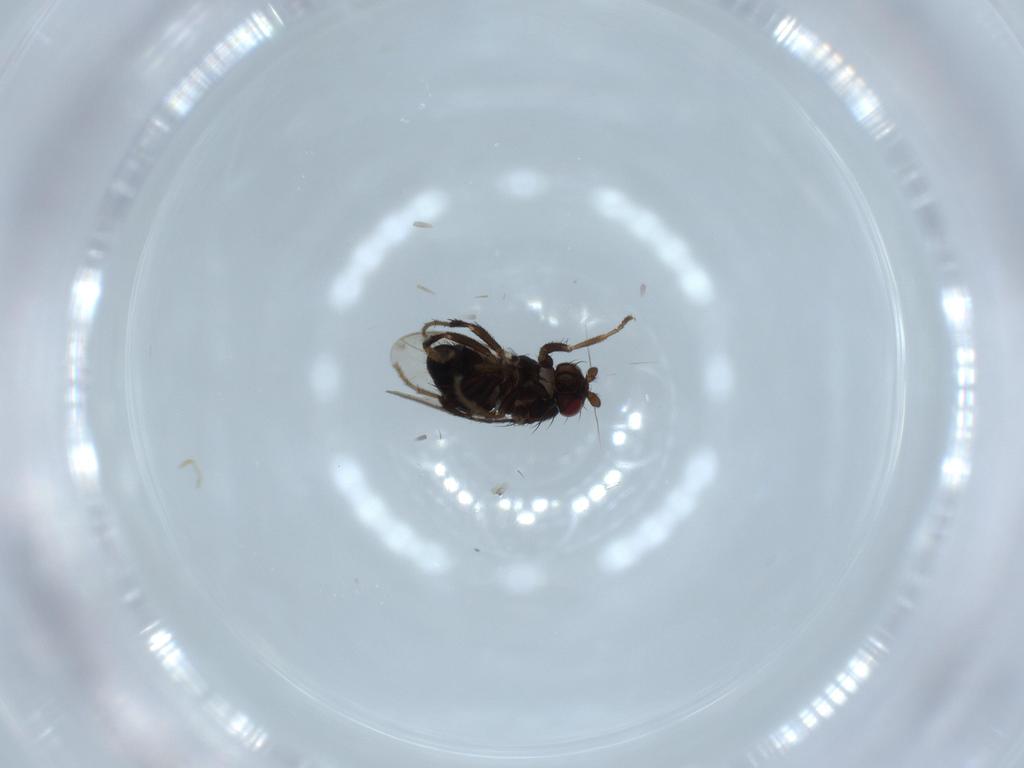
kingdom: Animalia
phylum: Arthropoda
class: Insecta
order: Diptera
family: Sphaeroceridae
